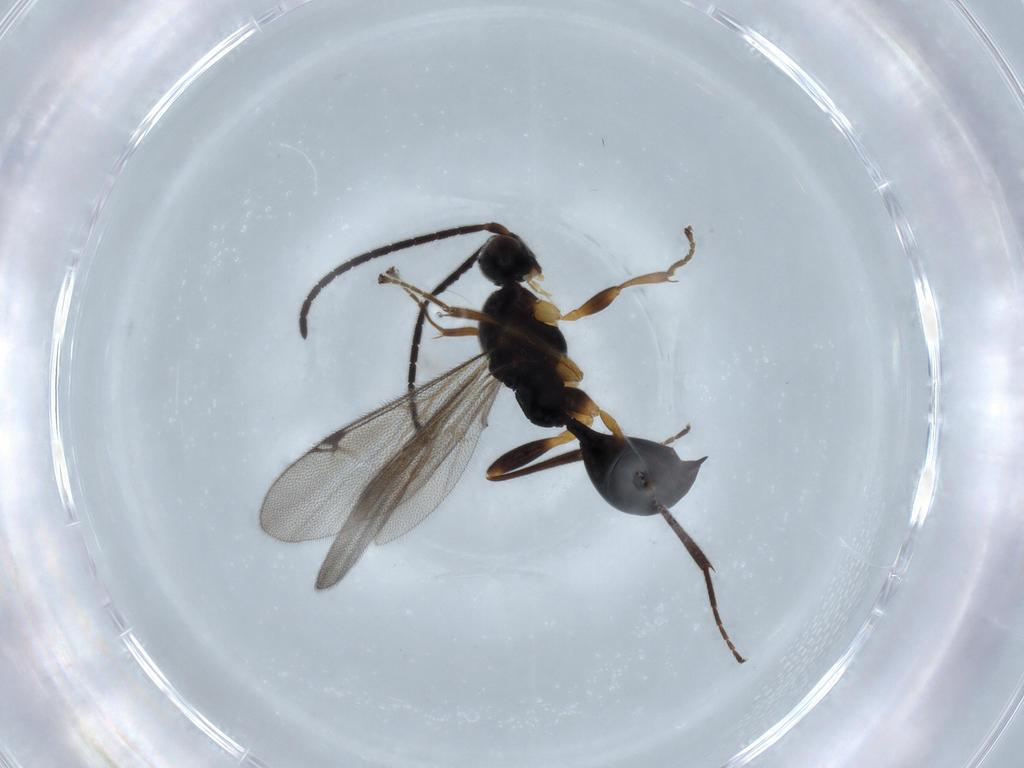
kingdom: Animalia
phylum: Arthropoda
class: Insecta
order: Hymenoptera
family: Proctotrupidae
